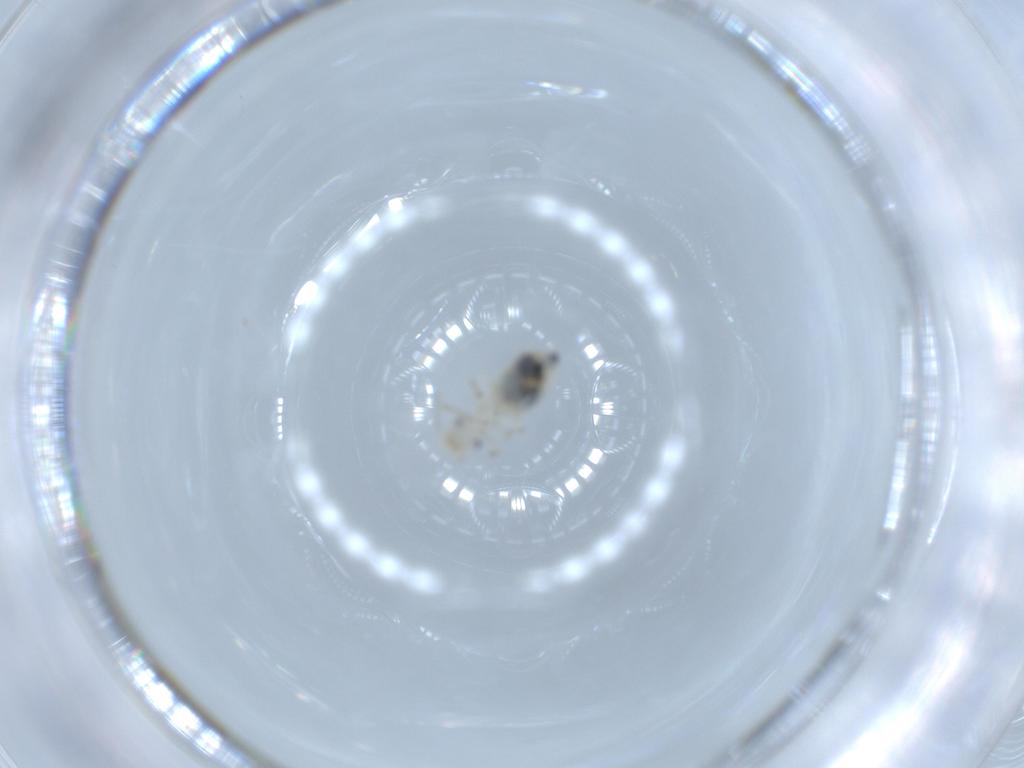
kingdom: Animalia
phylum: Arthropoda
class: Insecta
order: Psocodea
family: Caeciliusidae
